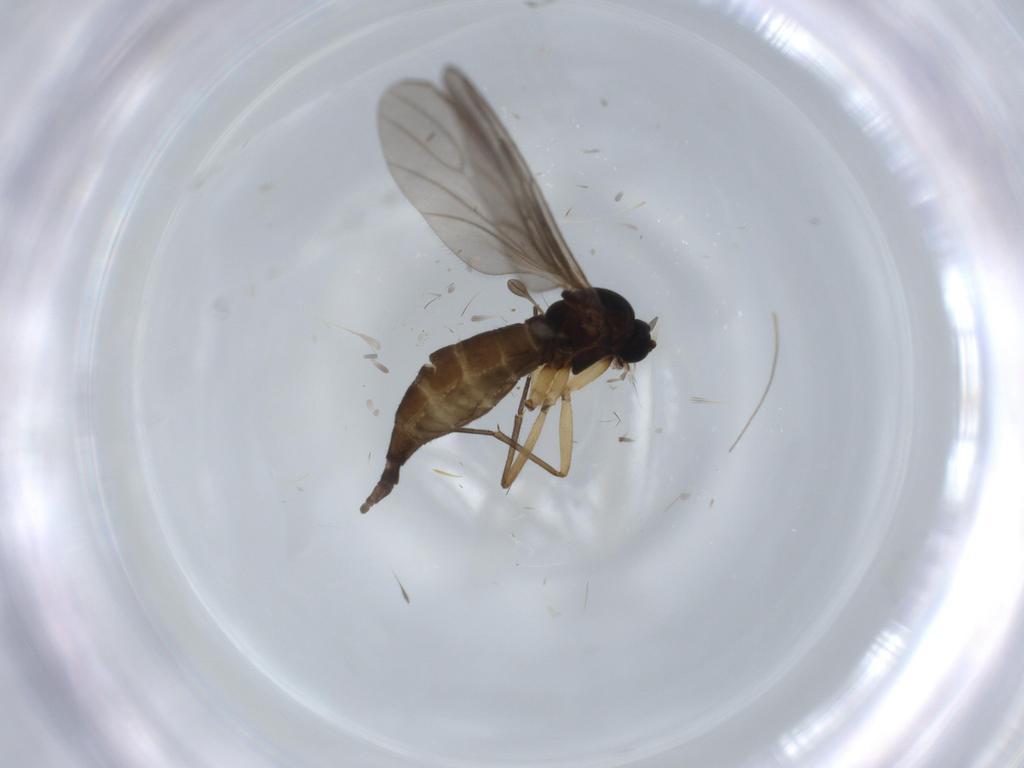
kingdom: Animalia
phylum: Arthropoda
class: Insecta
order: Diptera
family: Sciaridae
